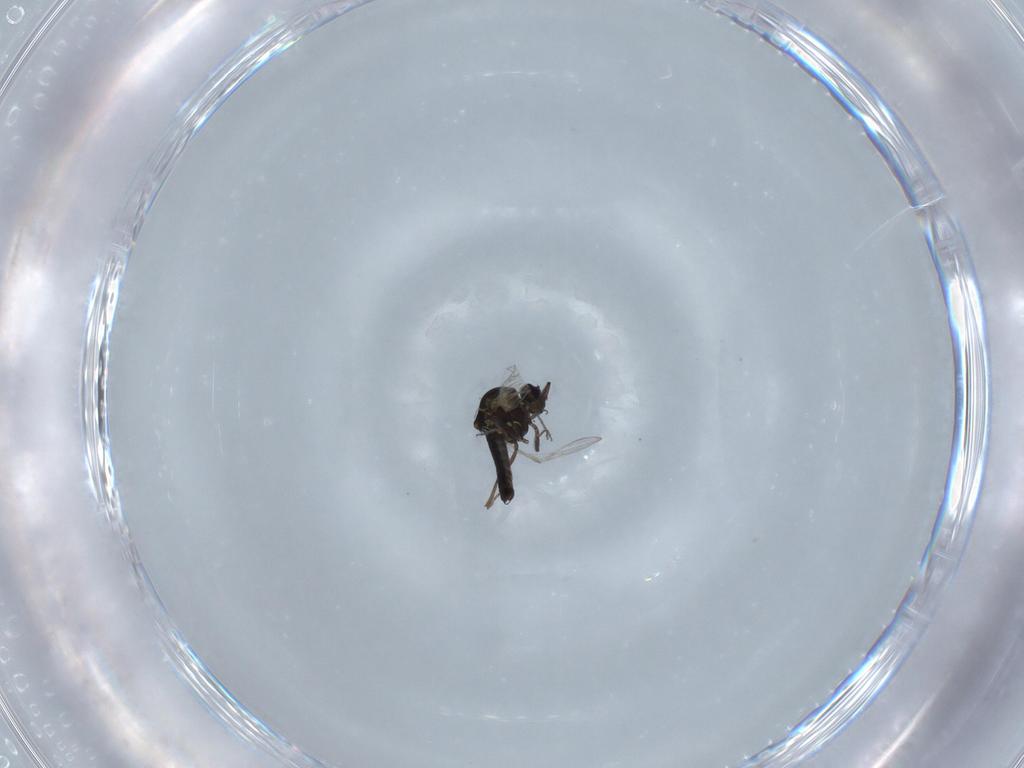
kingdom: Animalia
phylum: Arthropoda
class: Insecta
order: Diptera
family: Ceratopogonidae
